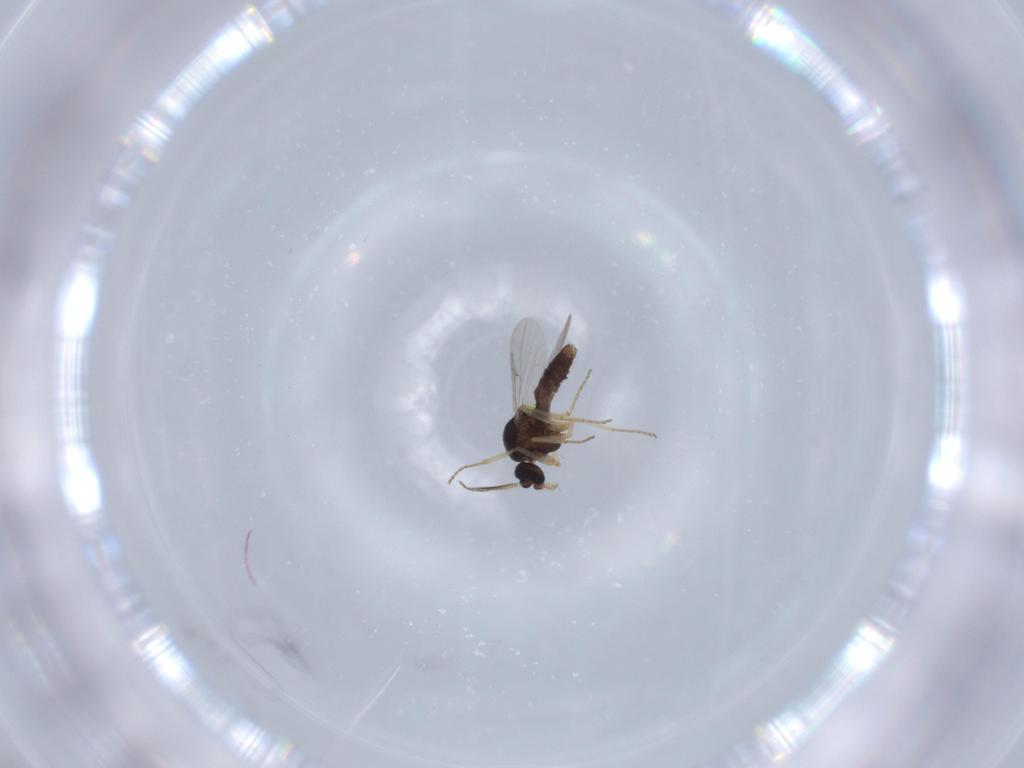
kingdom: Animalia
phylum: Arthropoda
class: Insecta
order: Diptera
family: Ceratopogonidae
